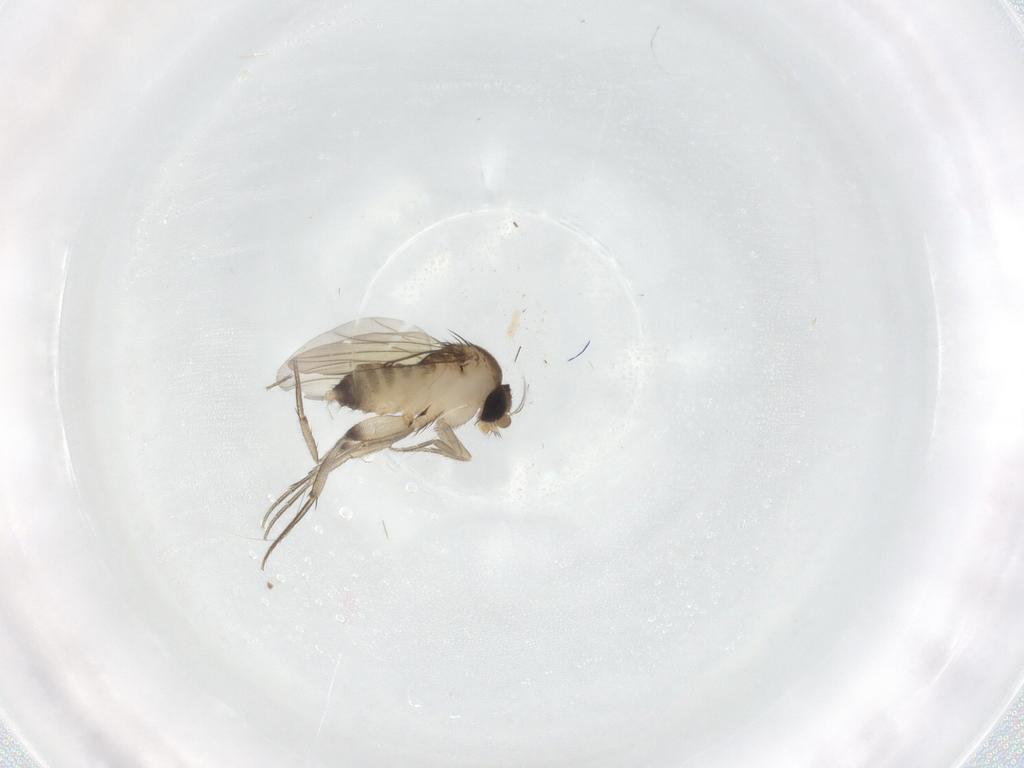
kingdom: Animalia
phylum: Arthropoda
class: Insecta
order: Diptera
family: Phoridae
